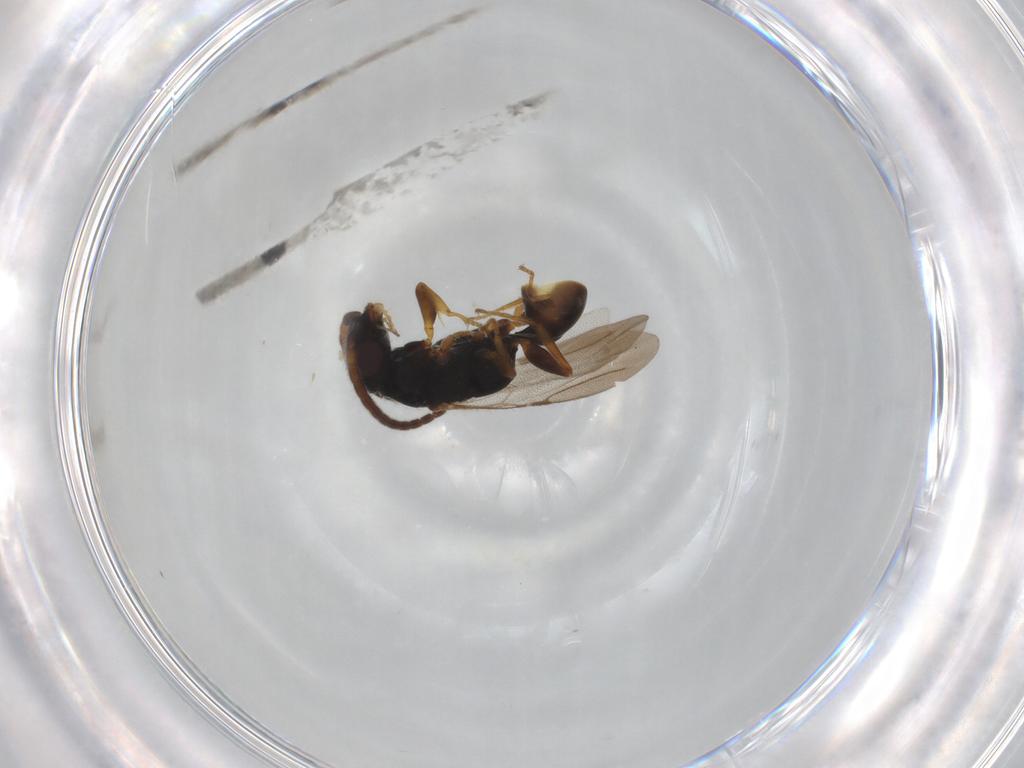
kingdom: Animalia
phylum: Arthropoda
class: Insecta
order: Hymenoptera
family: Bethylidae
